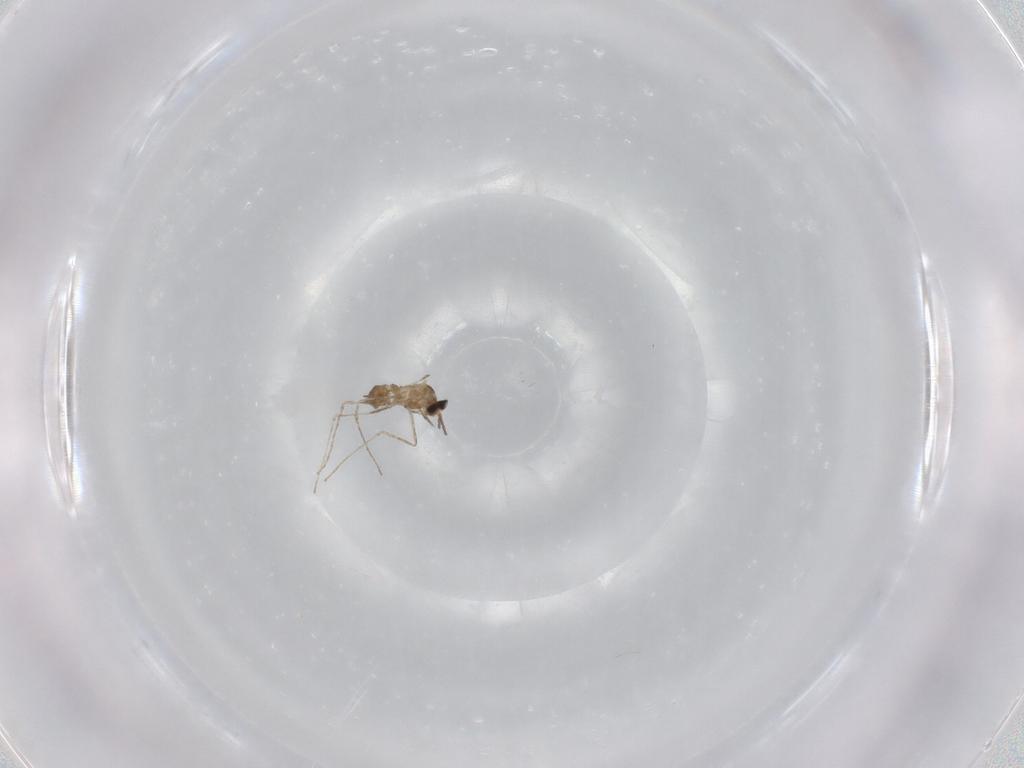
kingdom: Animalia
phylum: Arthropoda
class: Insecta
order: Diptera
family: Cecidomyiidae
